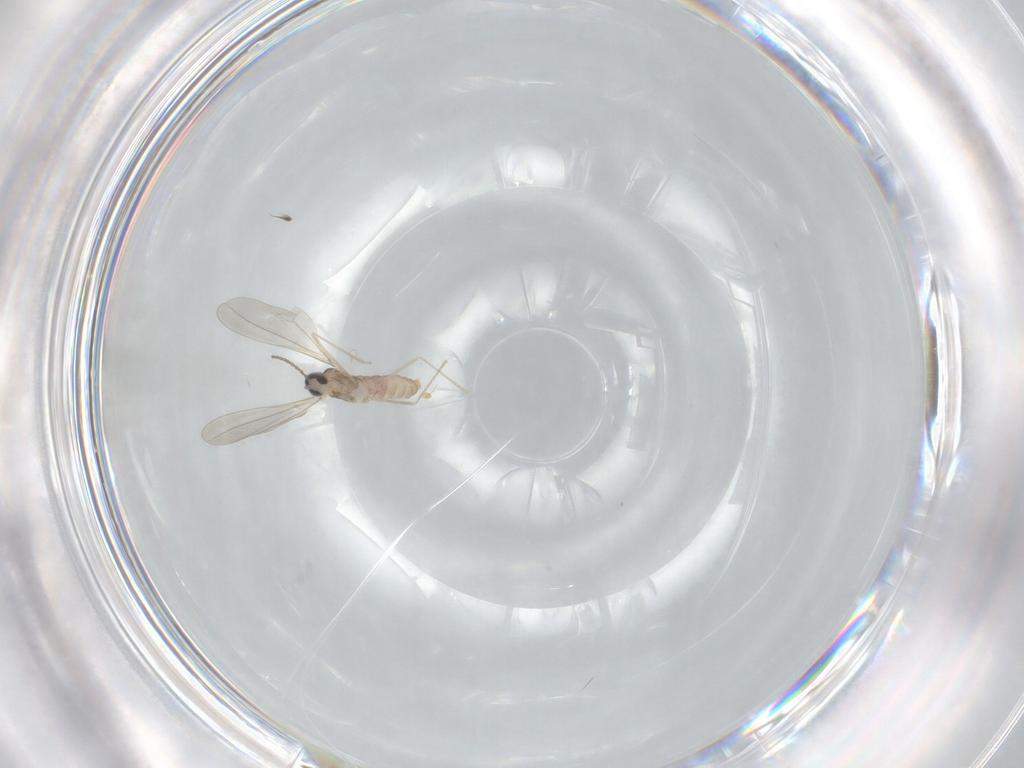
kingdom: Animalia
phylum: Arthropoda
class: Insecta
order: Diptera
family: Cecidomyiidae
